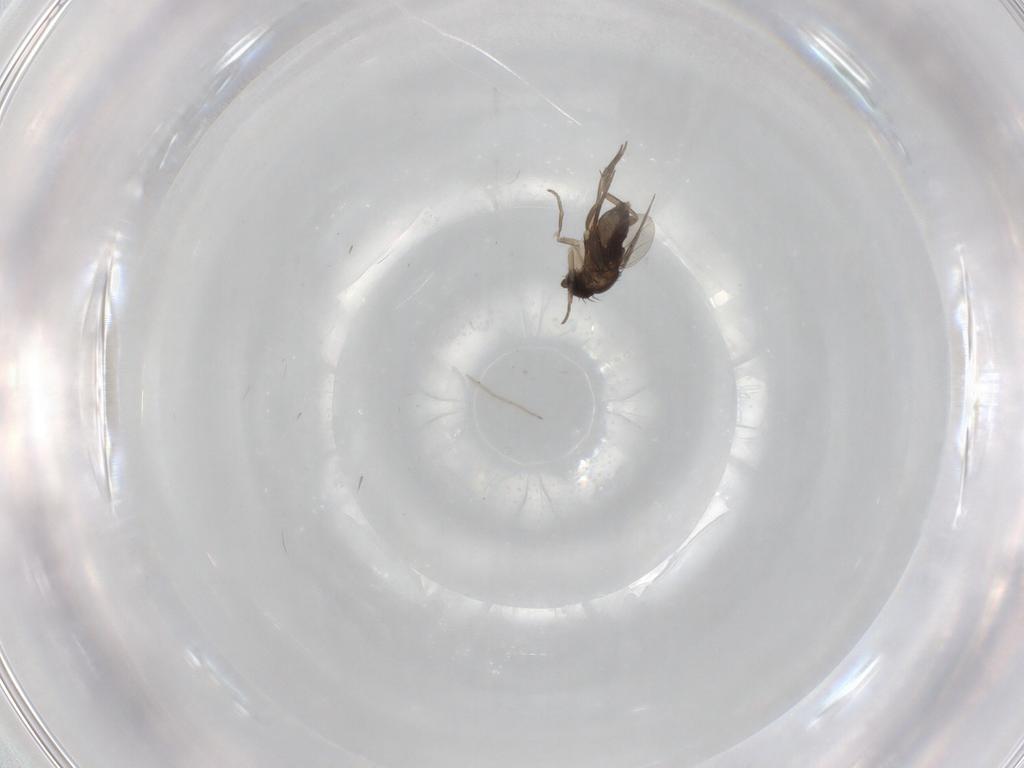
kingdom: Animalia
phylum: Arthropoda
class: Insecta
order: Diptera
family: Phoridae
